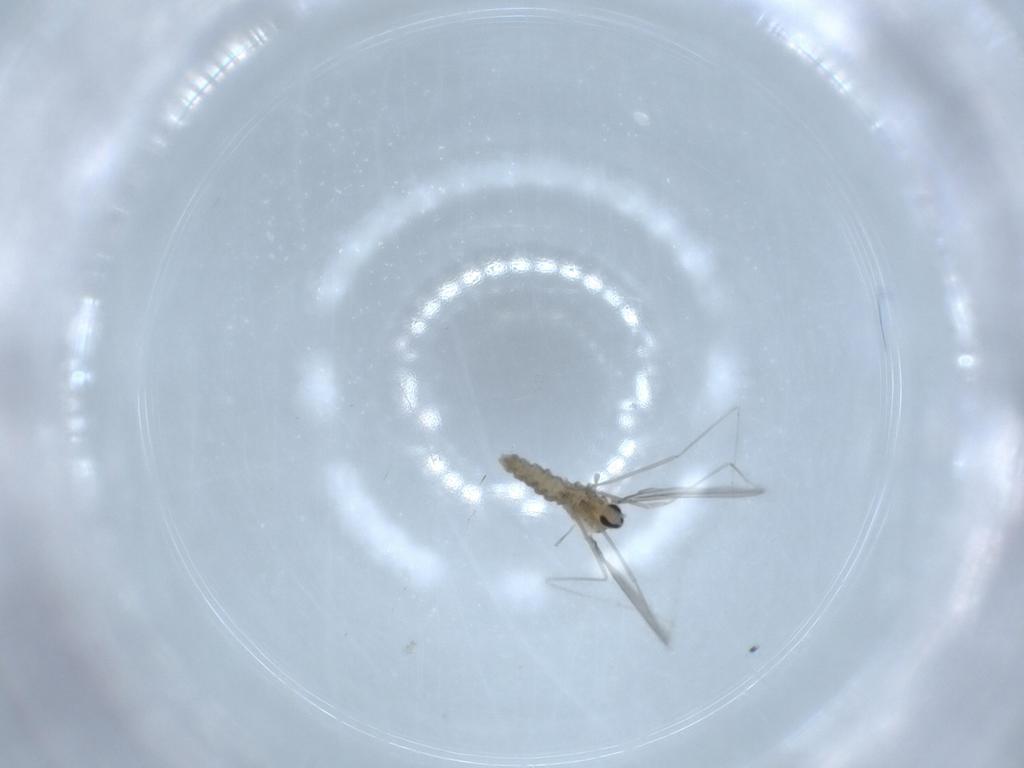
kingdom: Animalia
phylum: Arthropoda
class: Insecta
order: Diptera
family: Cecidomyiidae
